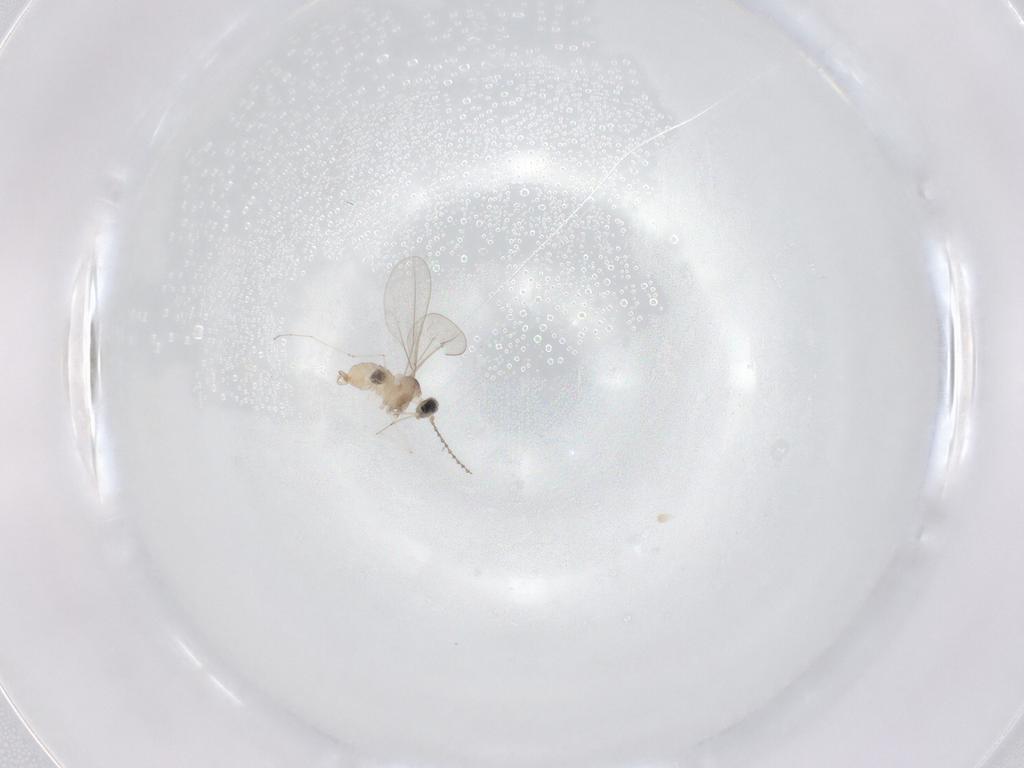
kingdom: Animalia
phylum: Arthropoda
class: Insecta
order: Diptera
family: Cecidomyiidae
